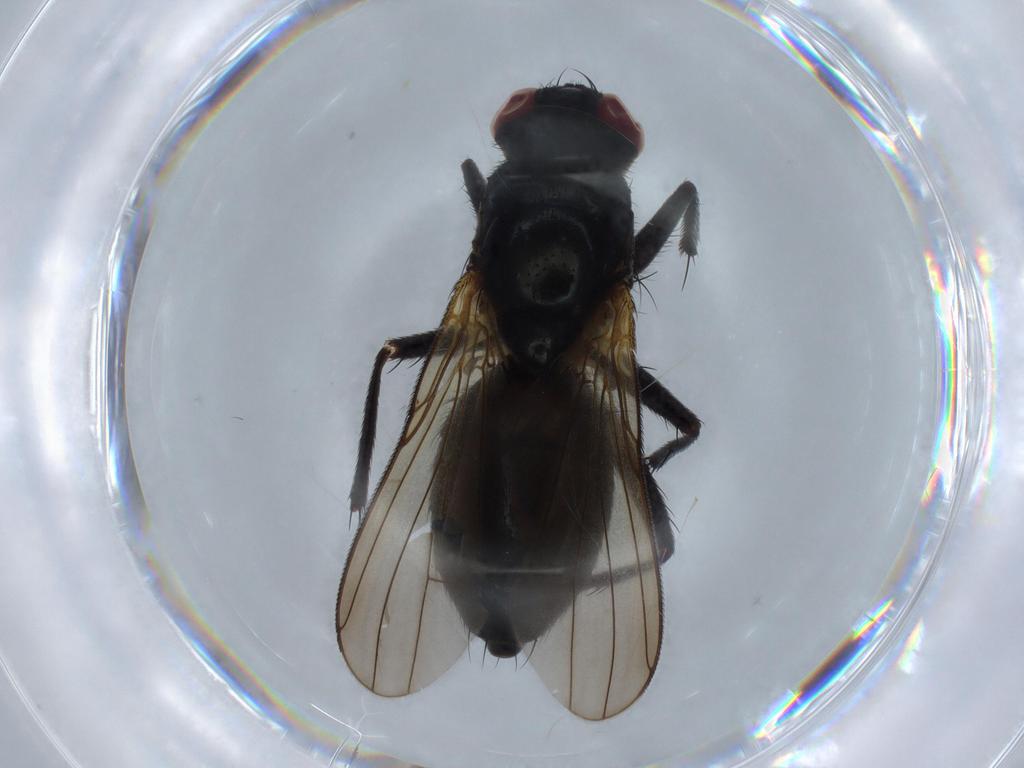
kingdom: Animalia
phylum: Arthropoda
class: Insecta
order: Diptera
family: Ceratopogonidae
